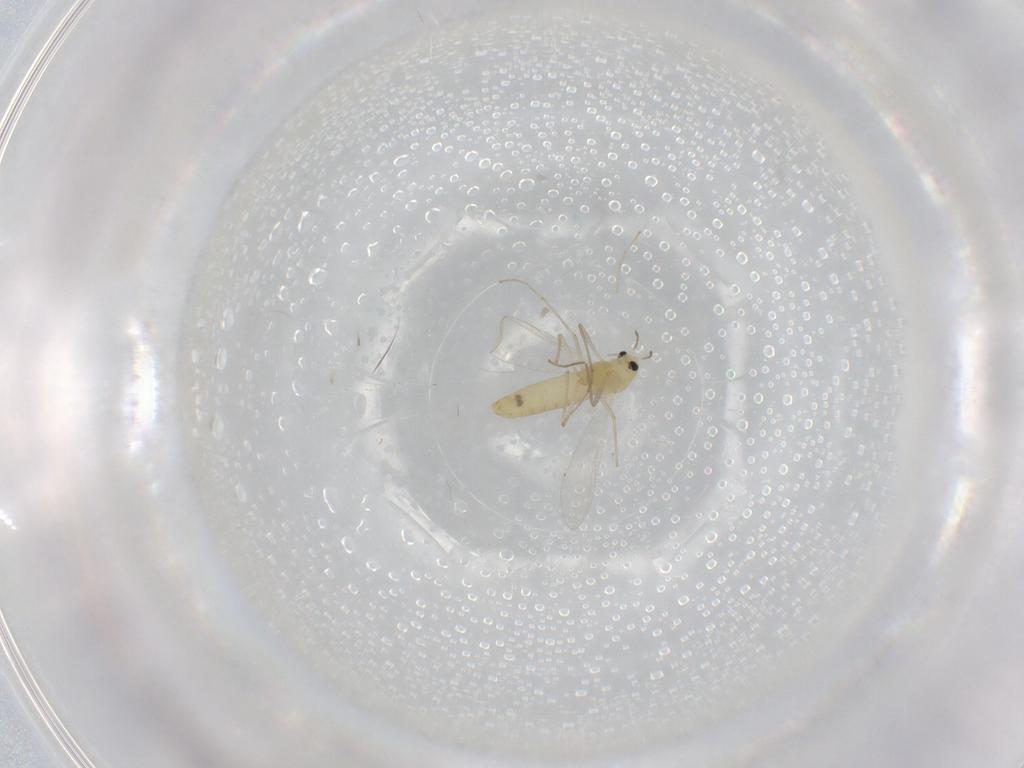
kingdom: Animalia
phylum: Arthropoda
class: Insecta
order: Diptera
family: Chironomidae
